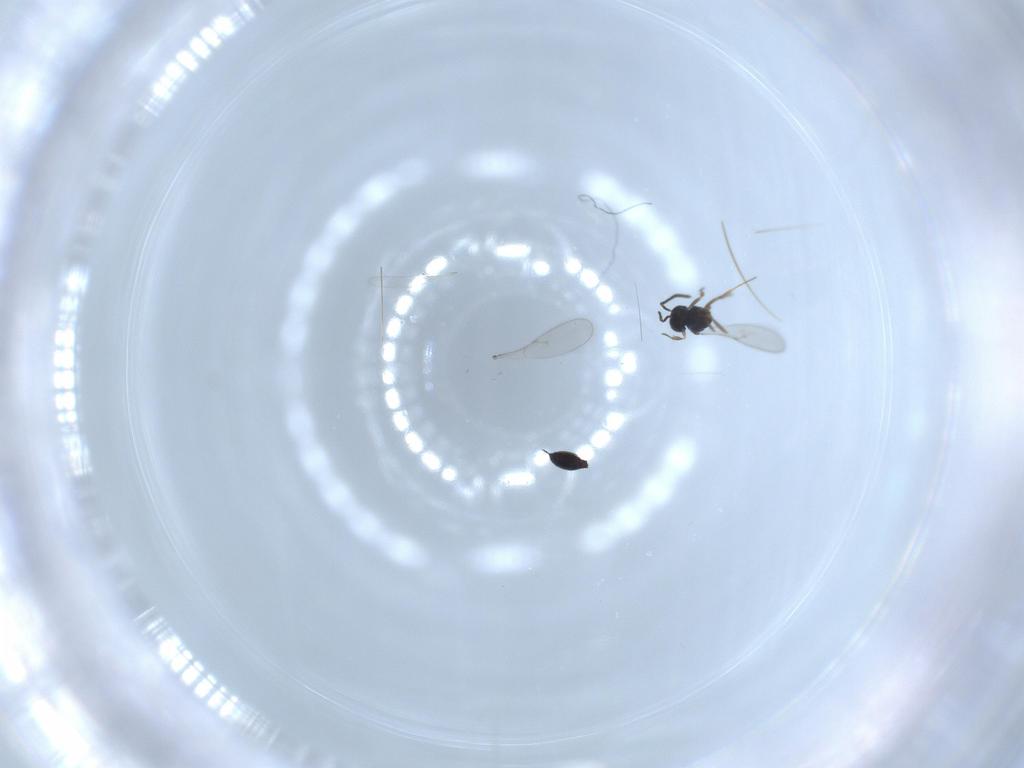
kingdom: Animalia
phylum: Arthropoda
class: Insecta
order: Hymenoptera
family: Scelionidae
